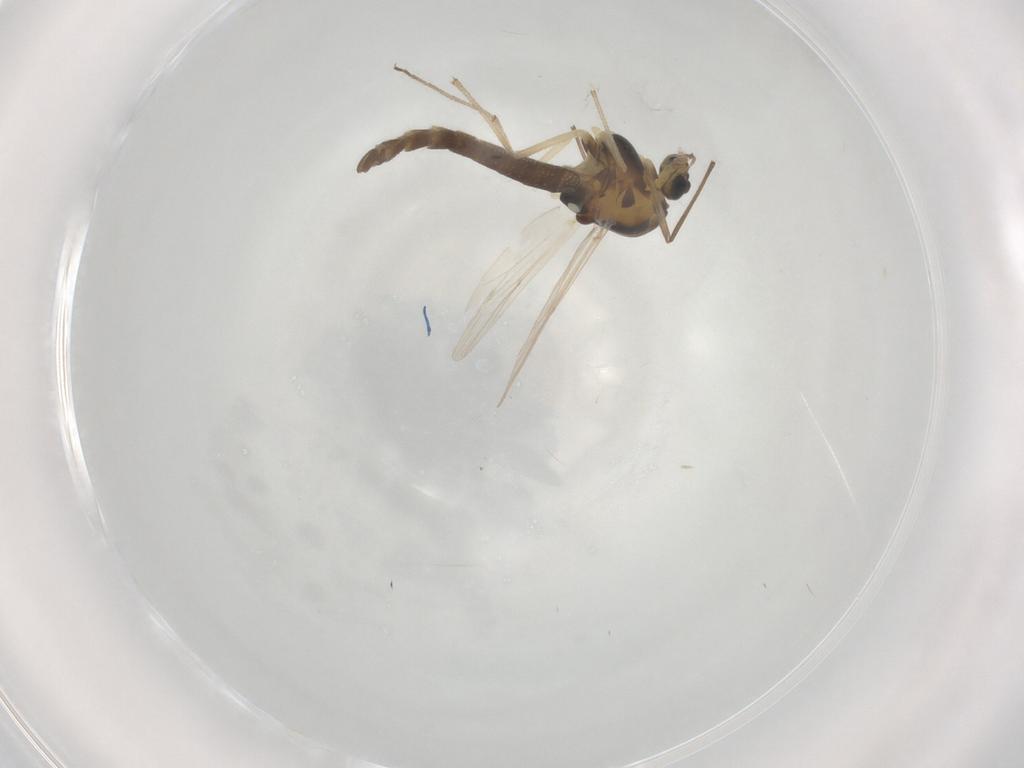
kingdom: Animalia
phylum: Arthropoda
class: Insecta
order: Diptera
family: Chironomidae
